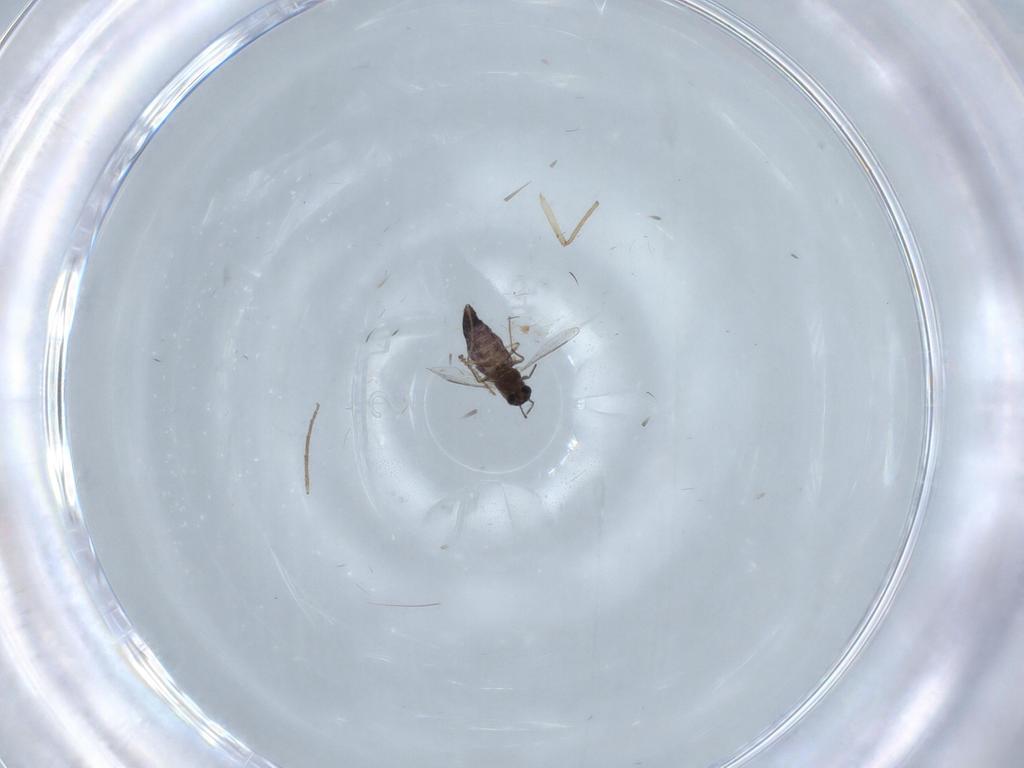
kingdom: Animalia
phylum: Arthropoda
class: Insecta
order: Diptera
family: Chironomidae
